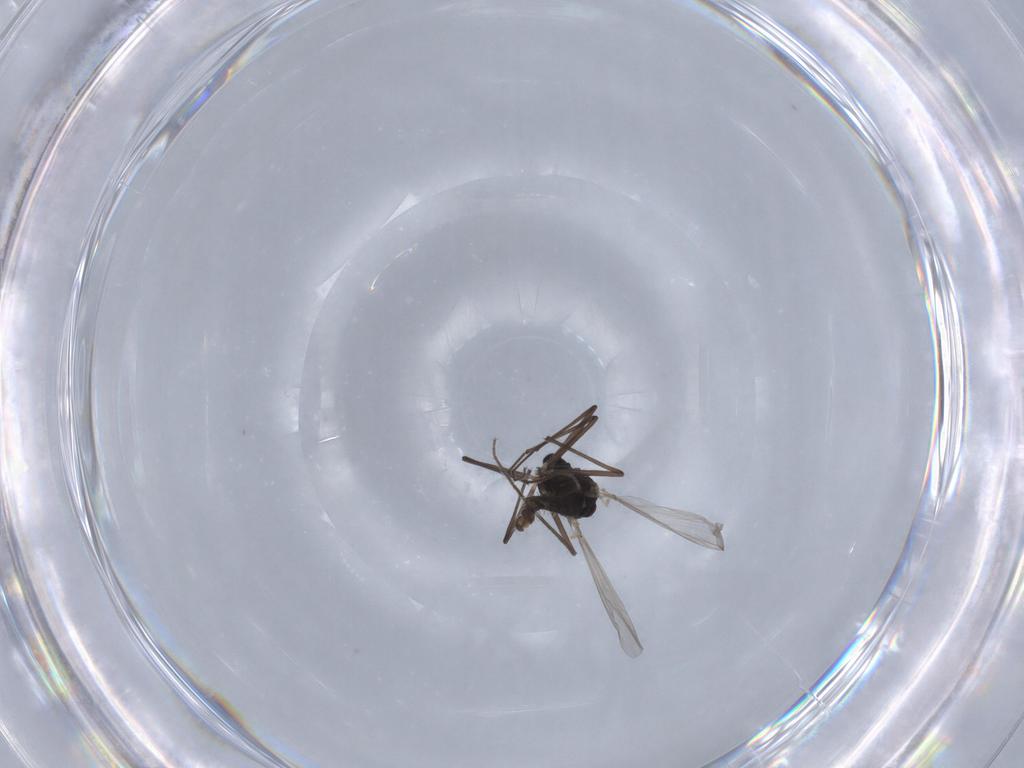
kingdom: Animalia
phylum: Arthropoda
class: Insecta
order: Diptera
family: Chironomidae
